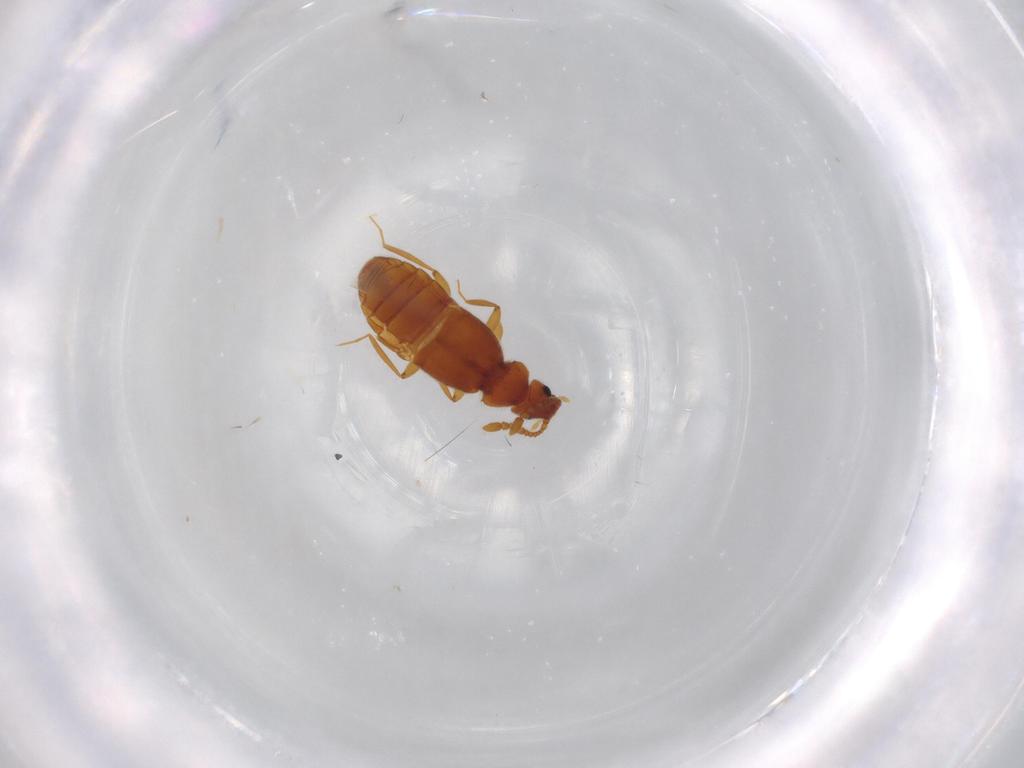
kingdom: Animalia
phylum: Arthropoda
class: Insecta
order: Coleoptera
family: Staphylinidae
